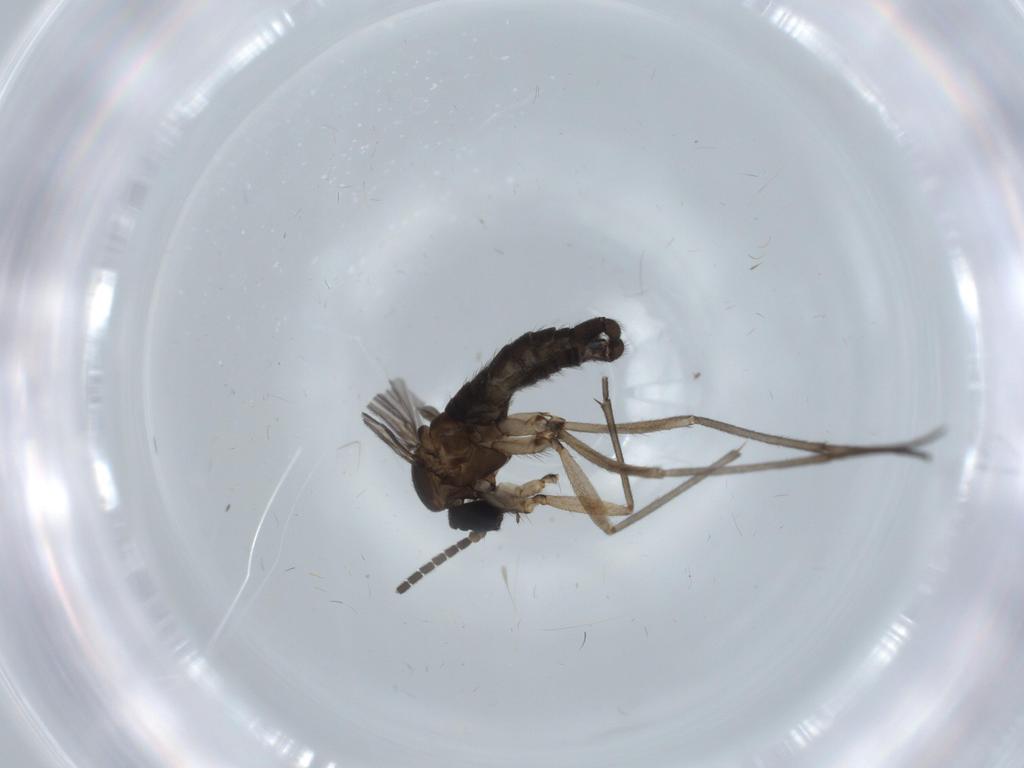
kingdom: Animalia
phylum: Arthropoda
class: Insecta
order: Diptera
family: Sciaridae
